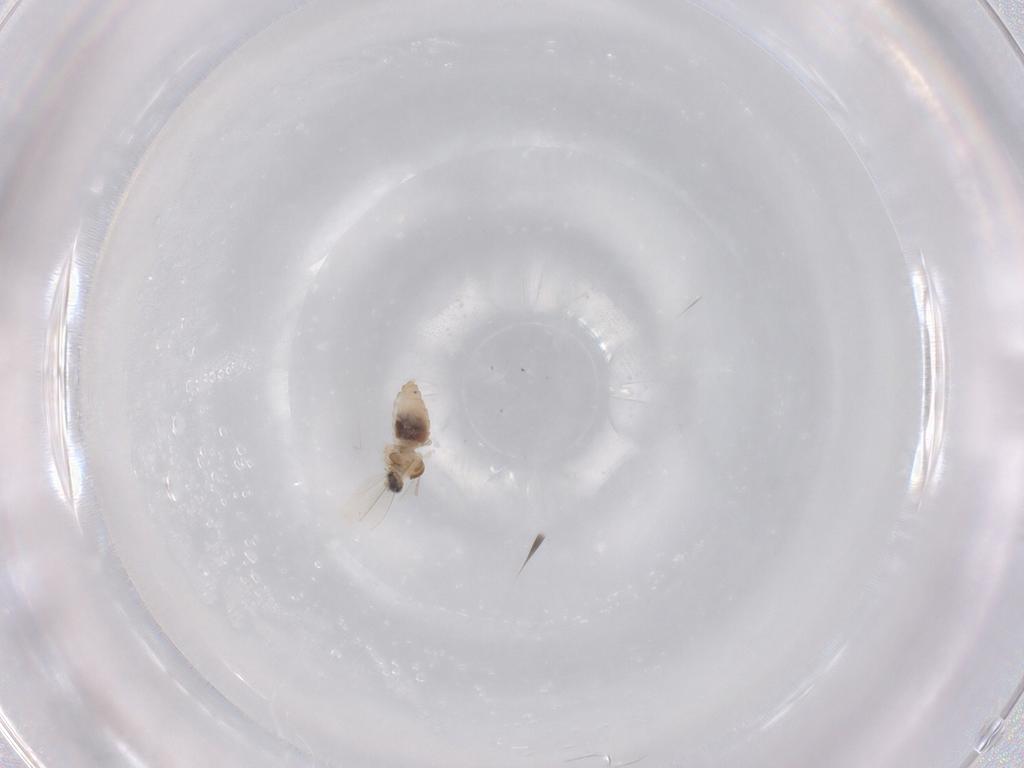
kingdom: Animalia
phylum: Arthropoda
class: Insecta
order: Diptera
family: Cecidomyiidae
